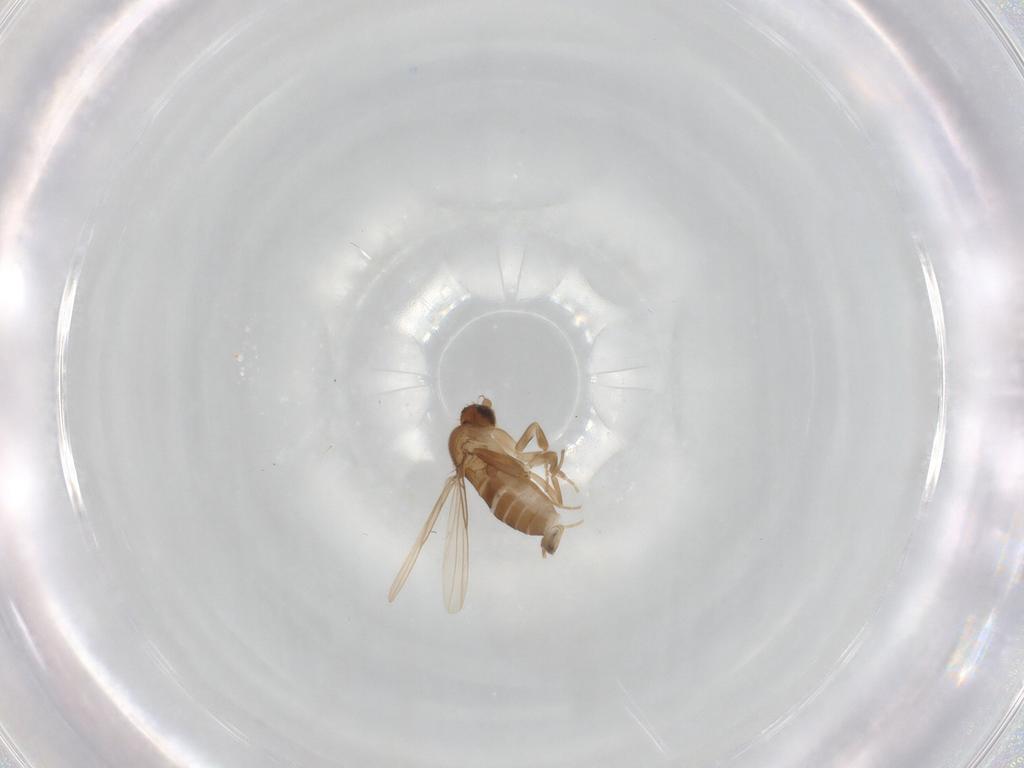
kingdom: Animalia
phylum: Arthropoda
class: Insecta
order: Diptera
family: Phoridae
